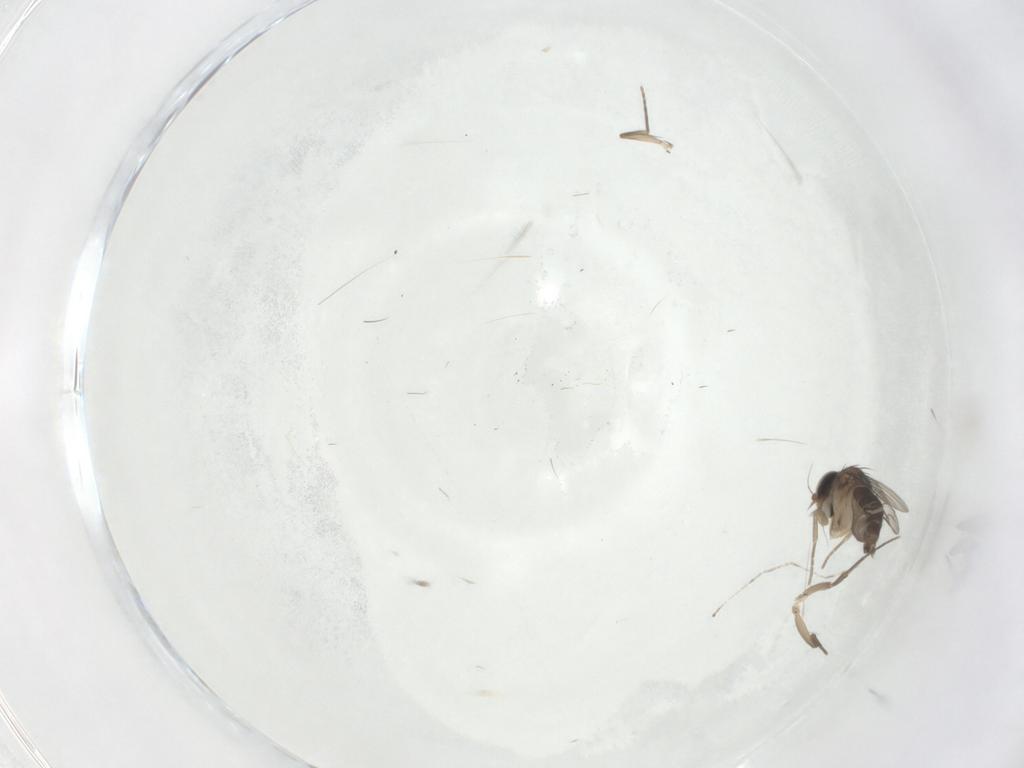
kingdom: Animalia
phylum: Arthropoda
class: Insecta
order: Diptera
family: Phoridae
